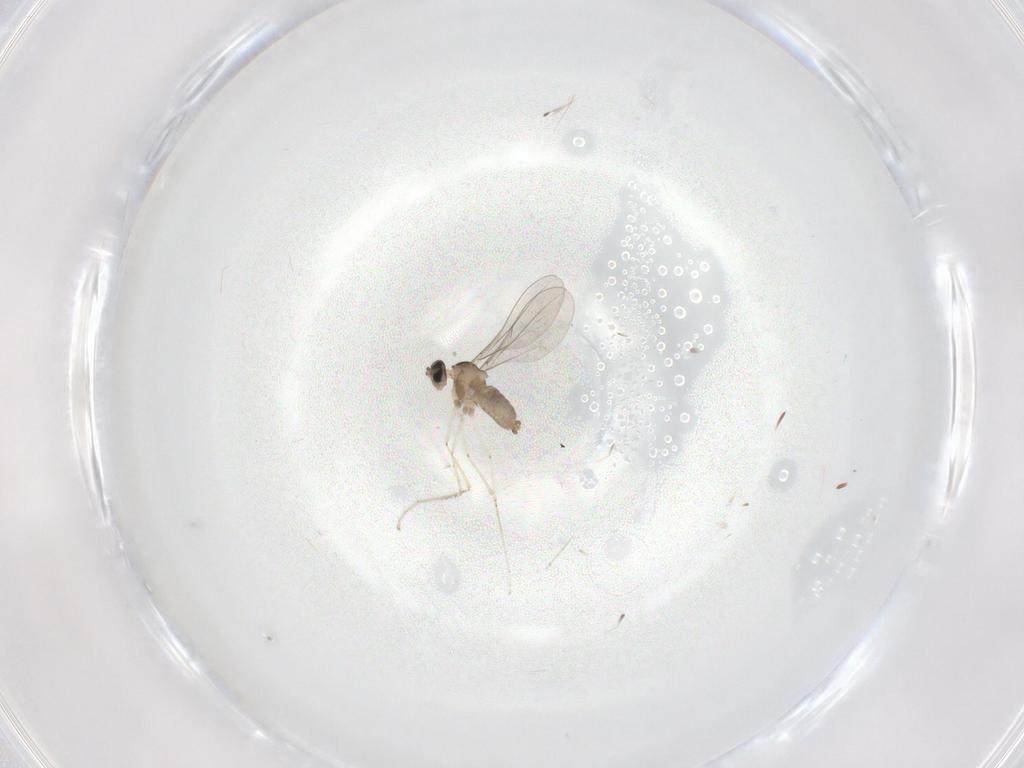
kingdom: Animalia
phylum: Arthropoda
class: Insecta
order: Diptera
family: Cecidomyiidae
